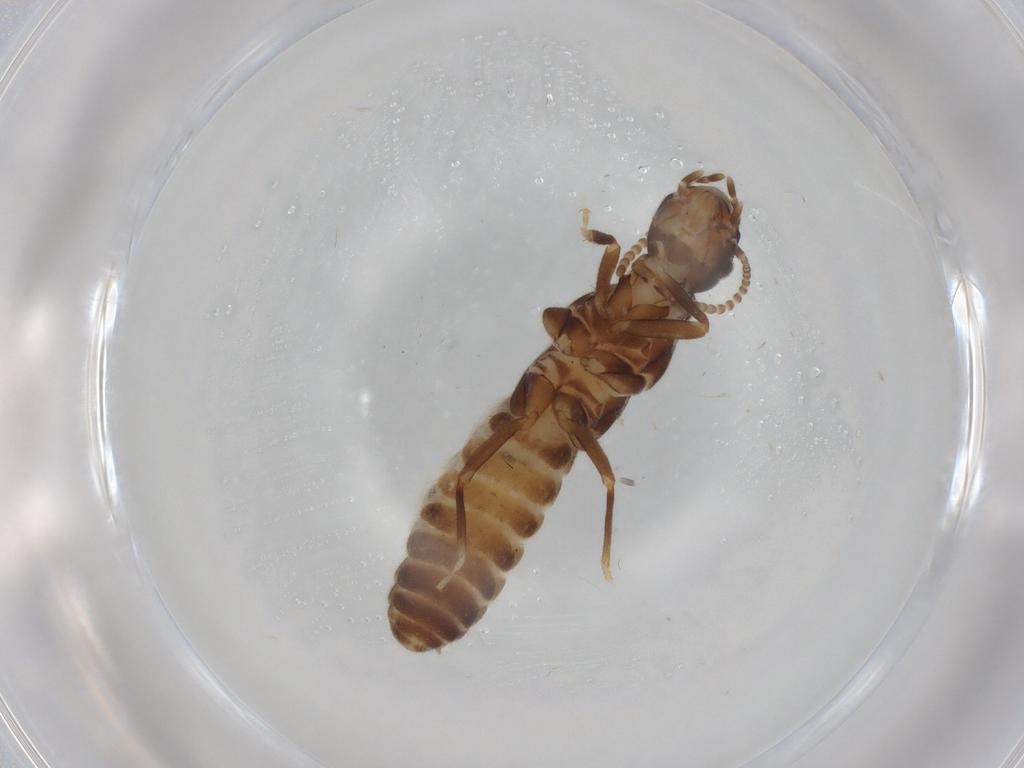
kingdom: Animalia
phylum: Arthropoda
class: Insecta
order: Blattodea
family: Termitidae
